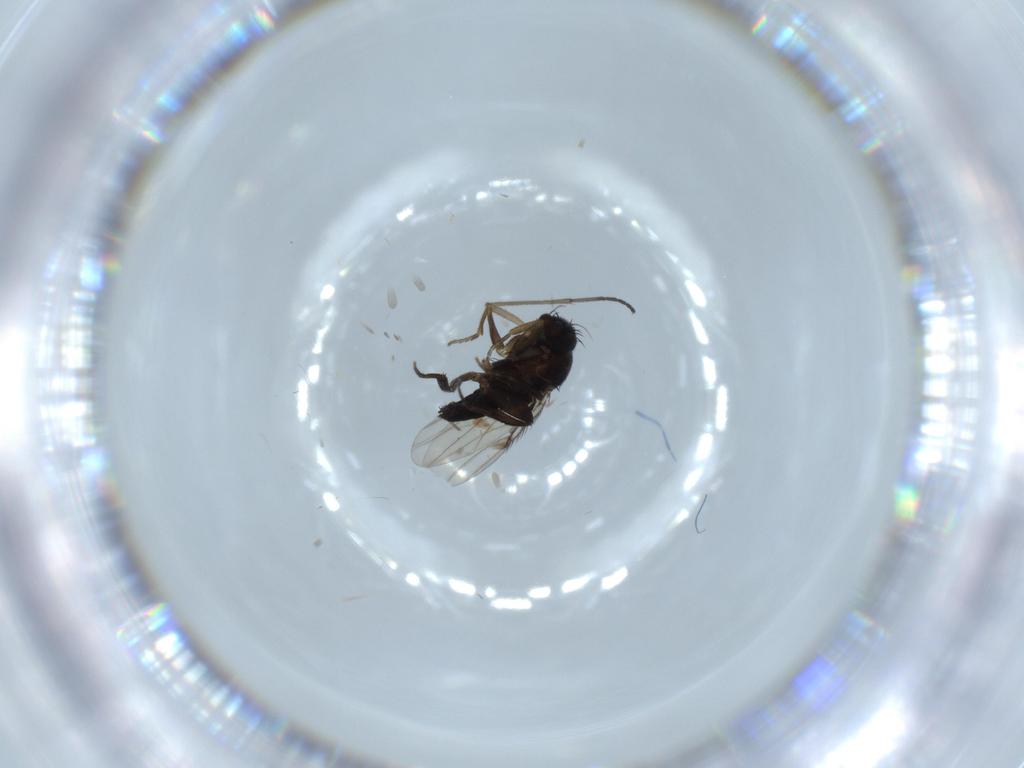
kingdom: Animalia
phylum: Arthropoda
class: Insecta
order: Diptera
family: Phoridae
